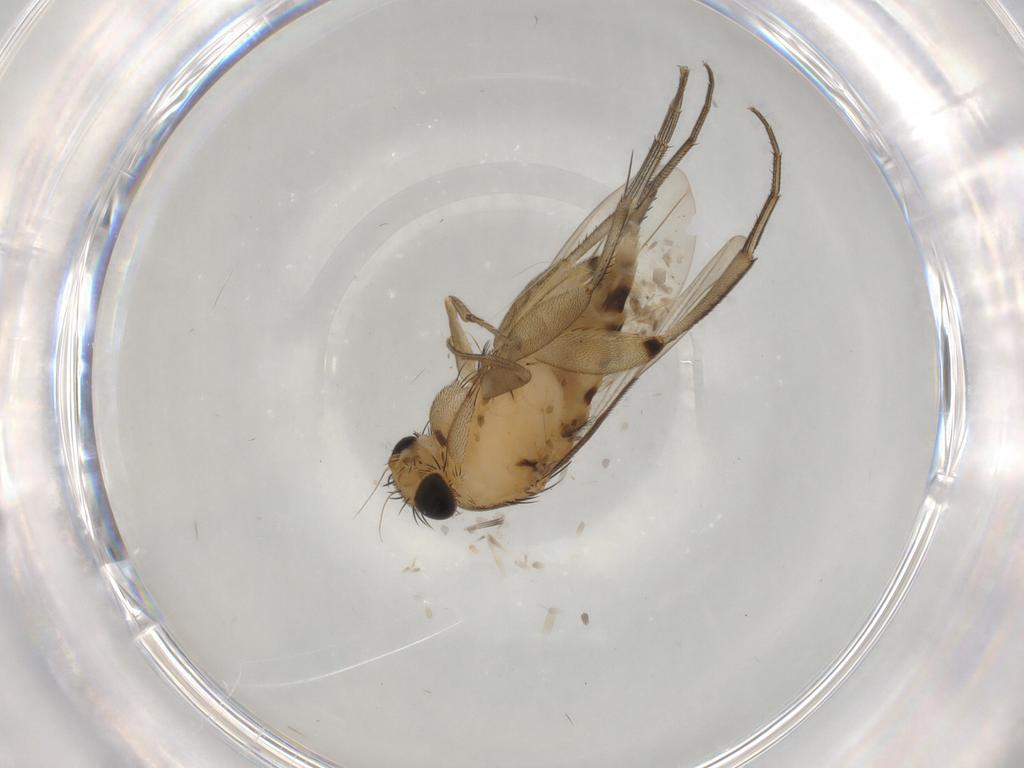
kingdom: Animalia
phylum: Arthropoda
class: Insecta
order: Diptera
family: Phoridae
